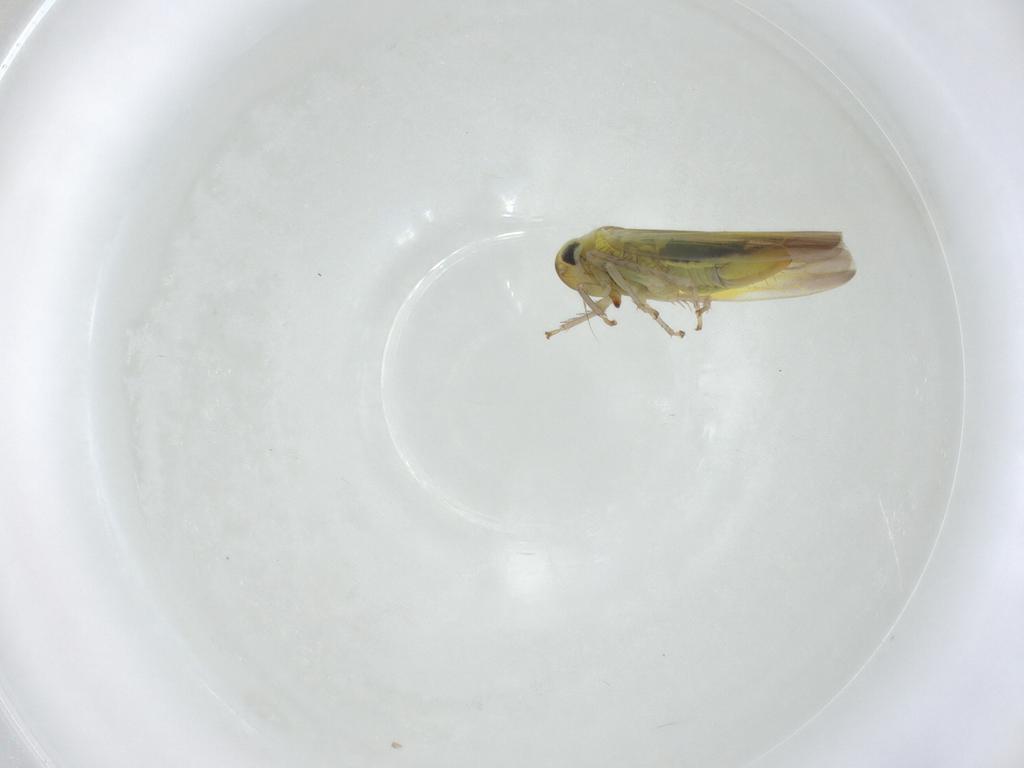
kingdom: Animalia
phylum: Arthropoda
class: Insecta
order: Hemiptera
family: Cicadellidae
